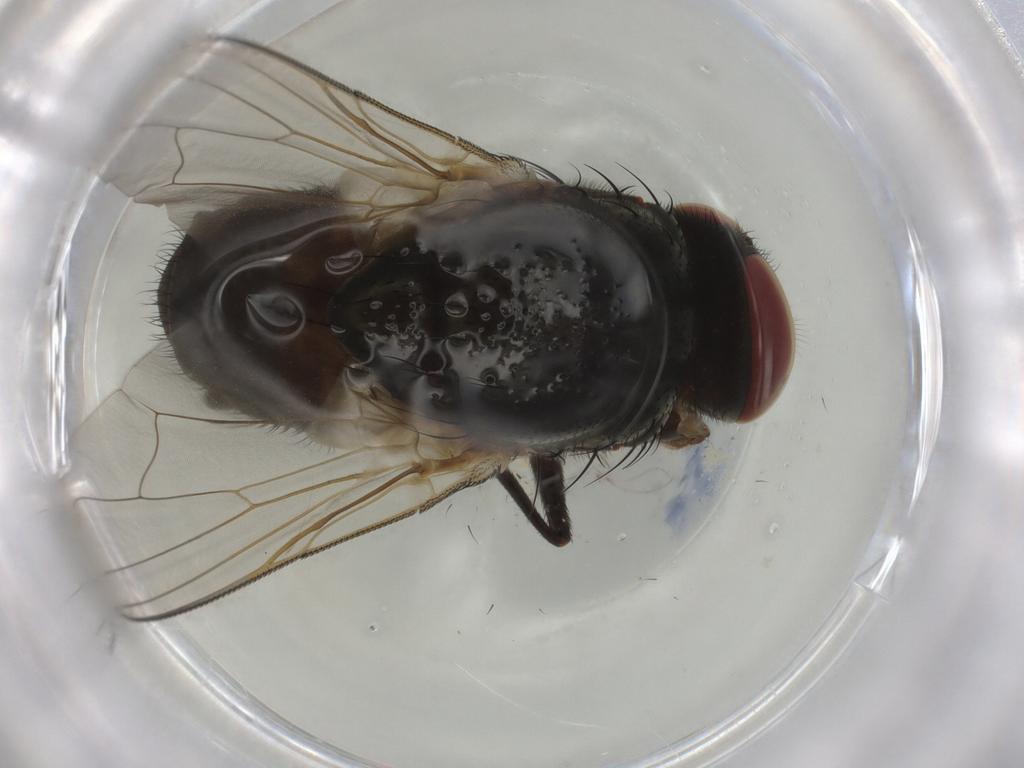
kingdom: Animalia
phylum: Arthropoda
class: Insecta
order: Diptera
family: Muscidae
